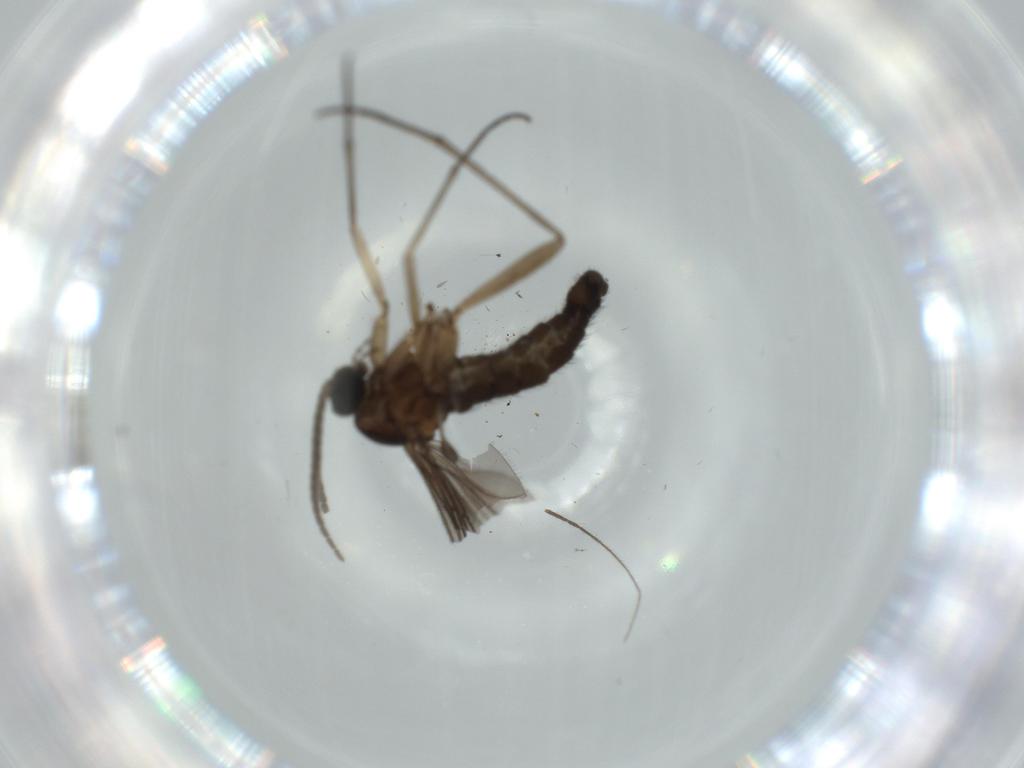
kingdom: Animalia
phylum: Arthropoda
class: Insecta
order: Diptera
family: Sciaridae
